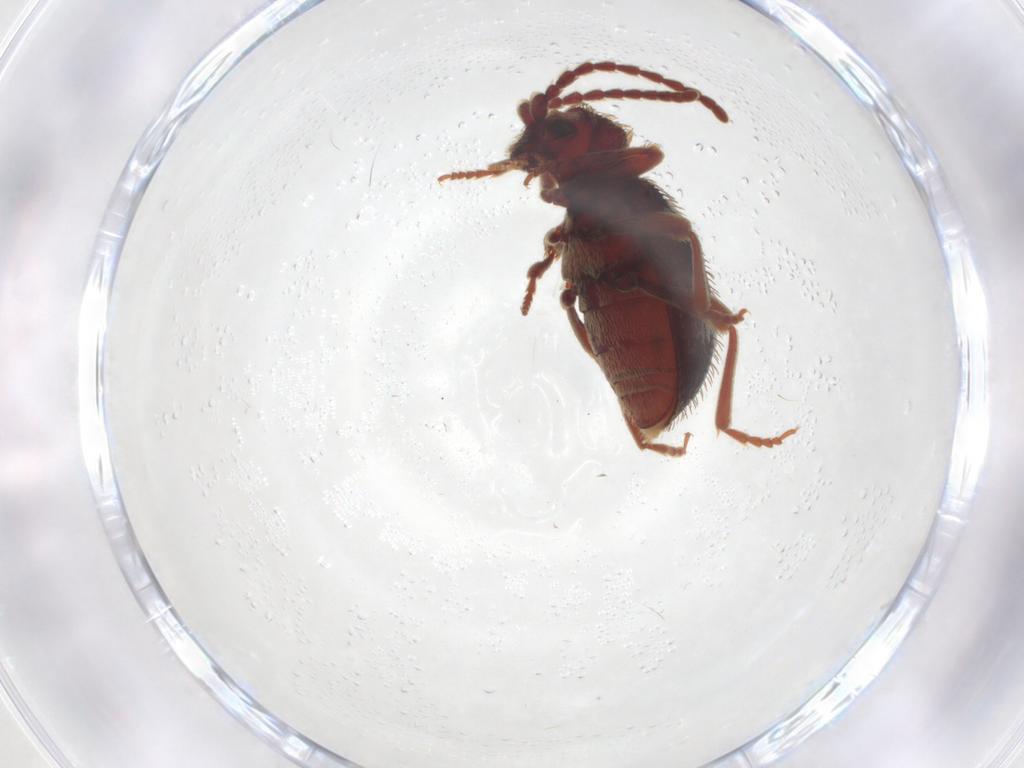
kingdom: Animalia
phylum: Arthropoda
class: Insecta
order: Coleoptera
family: Ptinidae
